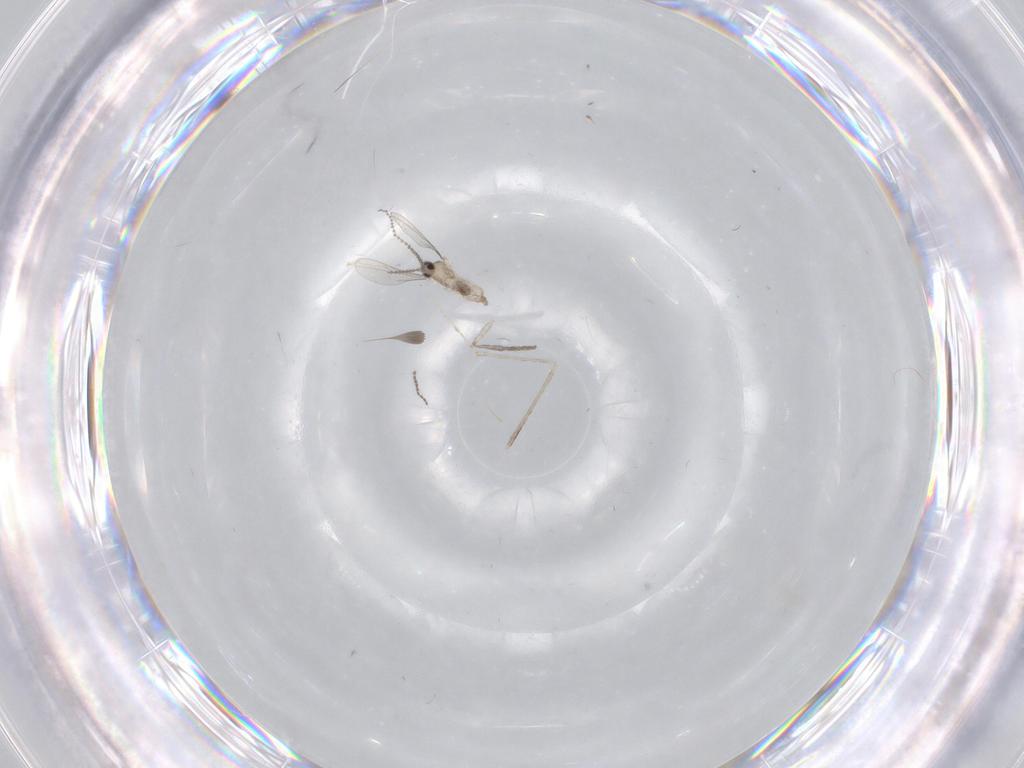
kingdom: Animalia
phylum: Arthropoda
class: Insecta
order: Diptera
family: Cecidomyiidae
